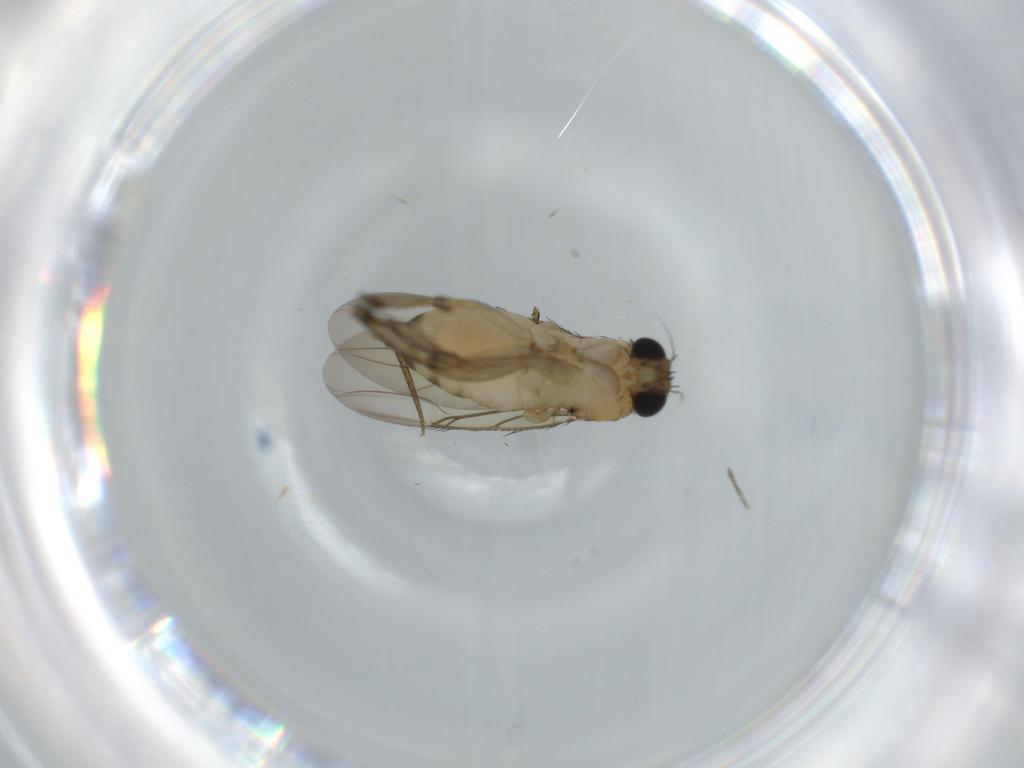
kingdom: Animalia
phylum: Arthropoda
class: Insecta
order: Diptera
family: Phoridae
